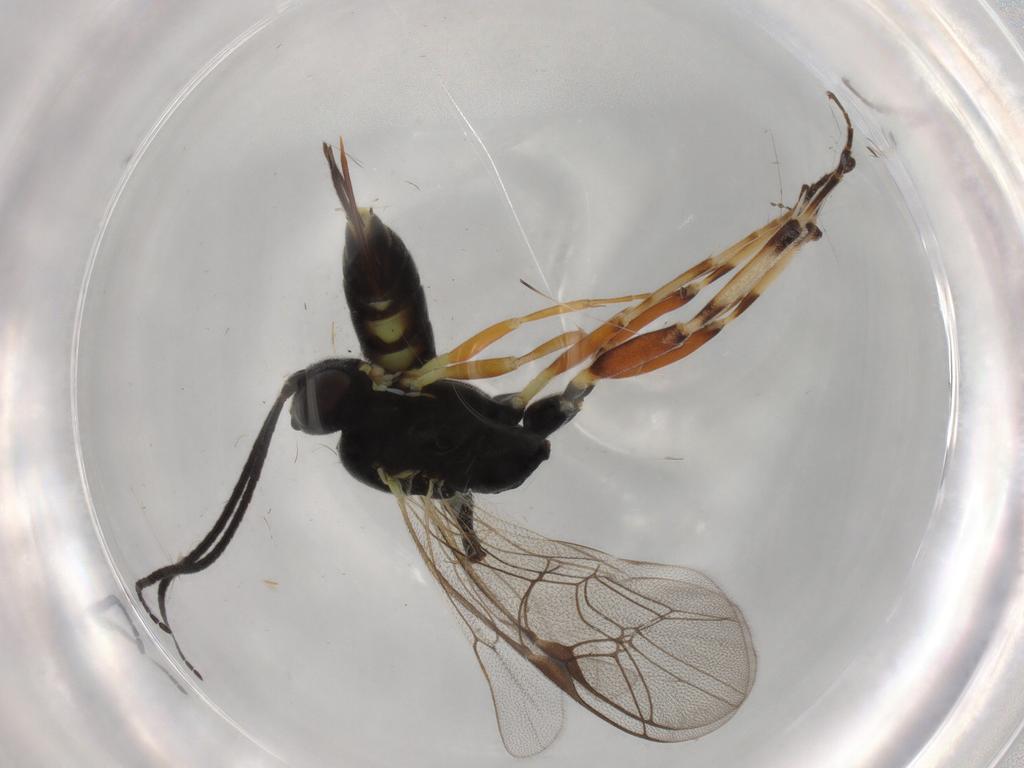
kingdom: Animalia
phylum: Arthropoda
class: Insecta
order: Hymenoptera
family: Ichneumonidae
